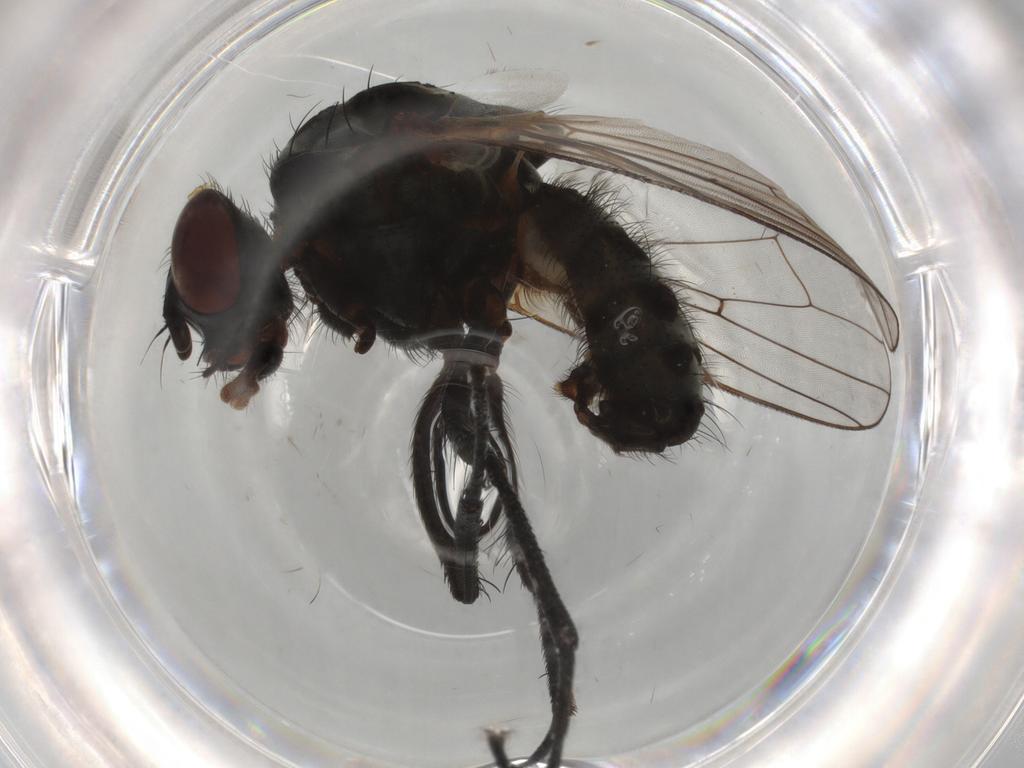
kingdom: Animalia
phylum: Arthropoda
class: Insecta
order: Diptera
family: Anthomyiidae
